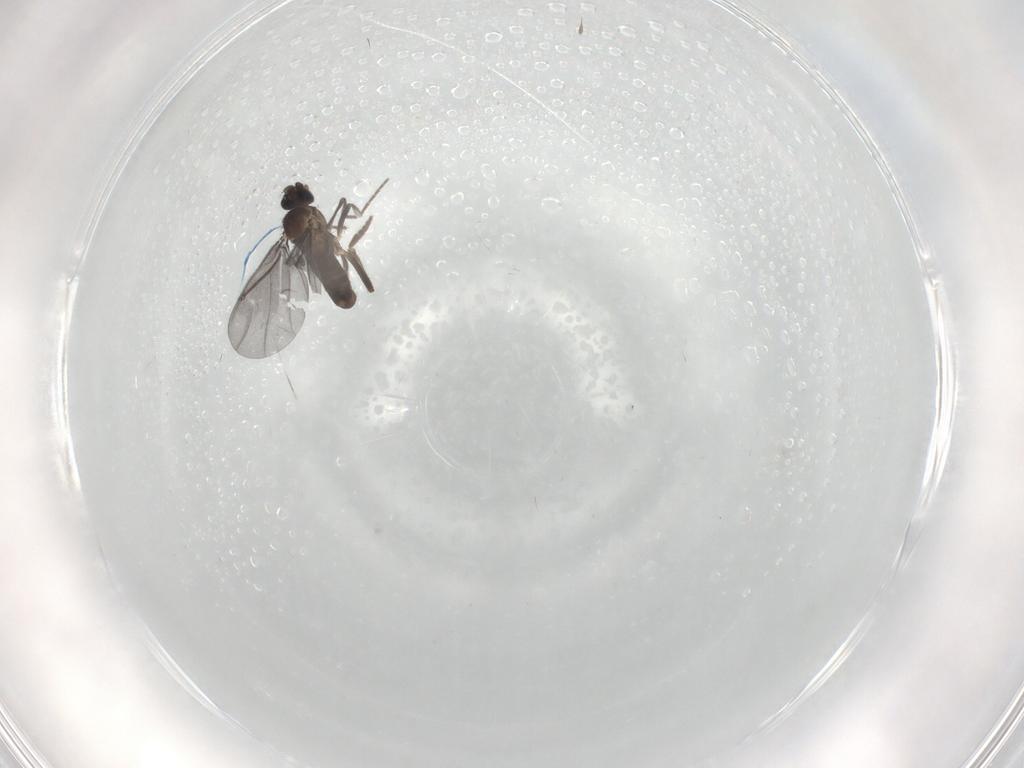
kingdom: Animalia
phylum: Arthropoda
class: Insecta
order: Diptera
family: Phoridae
